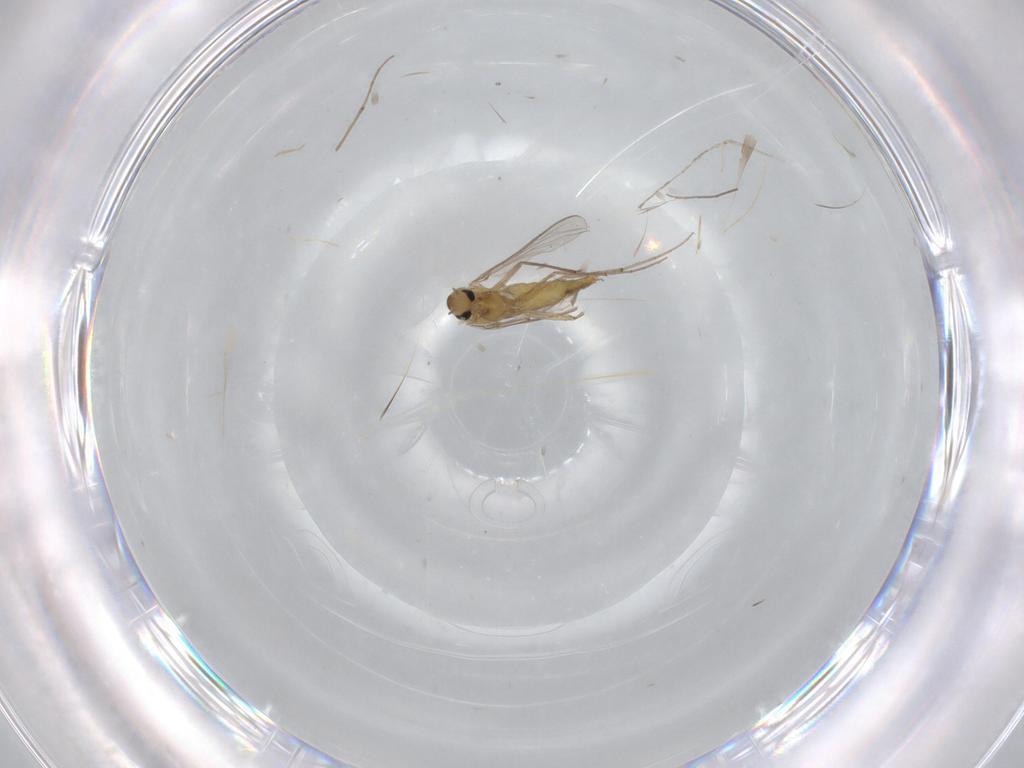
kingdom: Animalia
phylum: Arthropoda
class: Insecta
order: Diptera
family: Chironomidae
